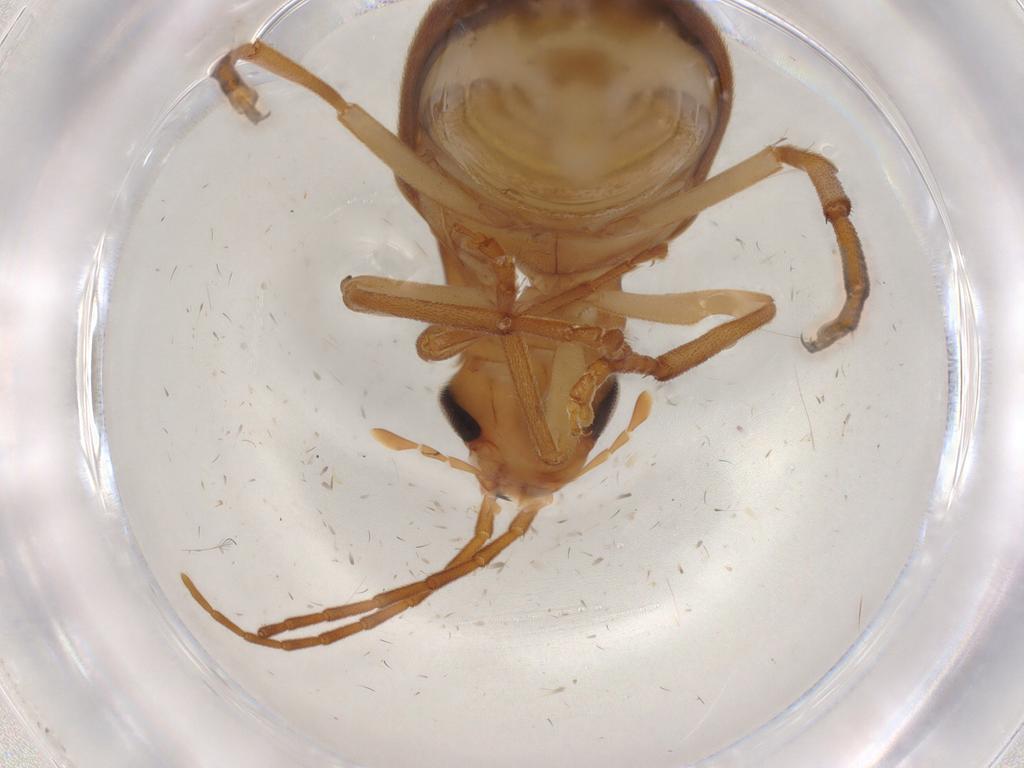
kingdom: Animalia
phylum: Arthropoda
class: Insecta
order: Coleoptera
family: Oedemeridae
